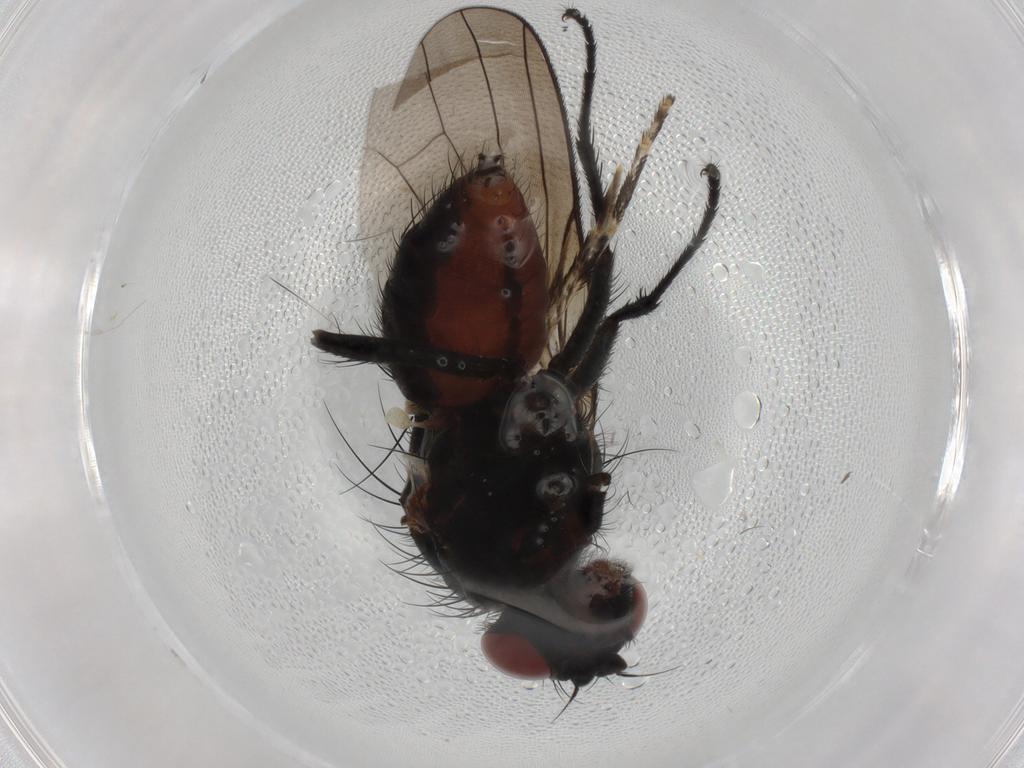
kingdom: Animalia
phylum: Arthropoda
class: Insecta
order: Diptera
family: Anthomyiidae
